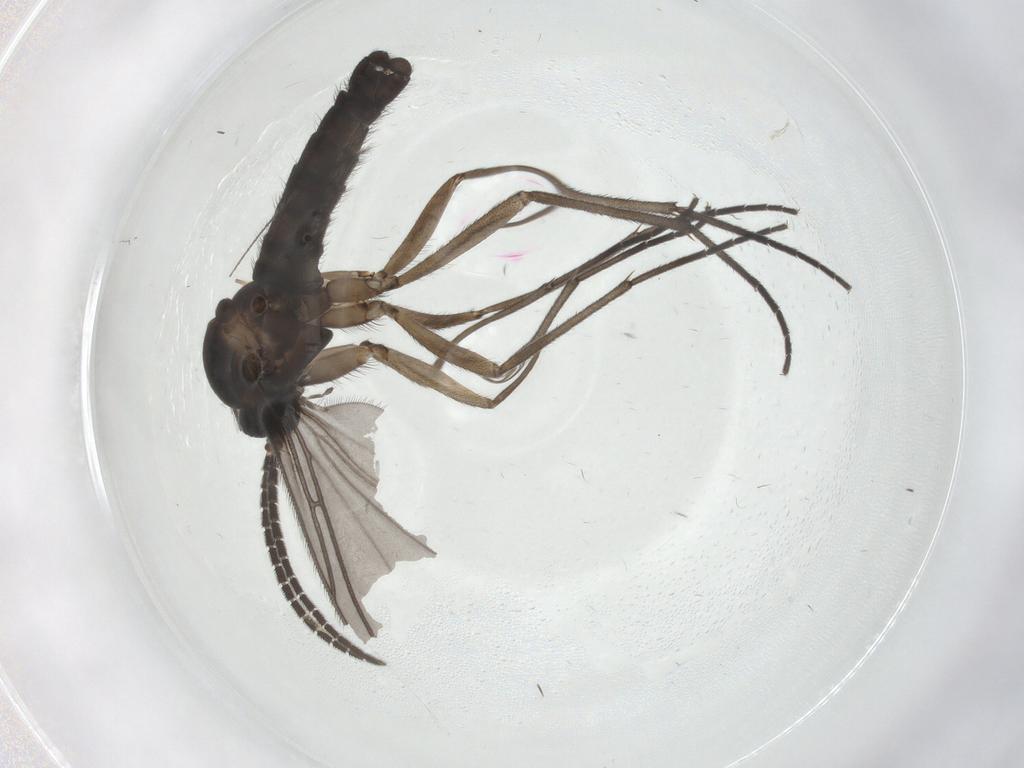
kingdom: Animalia
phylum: Arthropoda
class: Insecta
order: Diptera
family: Sciaridae
